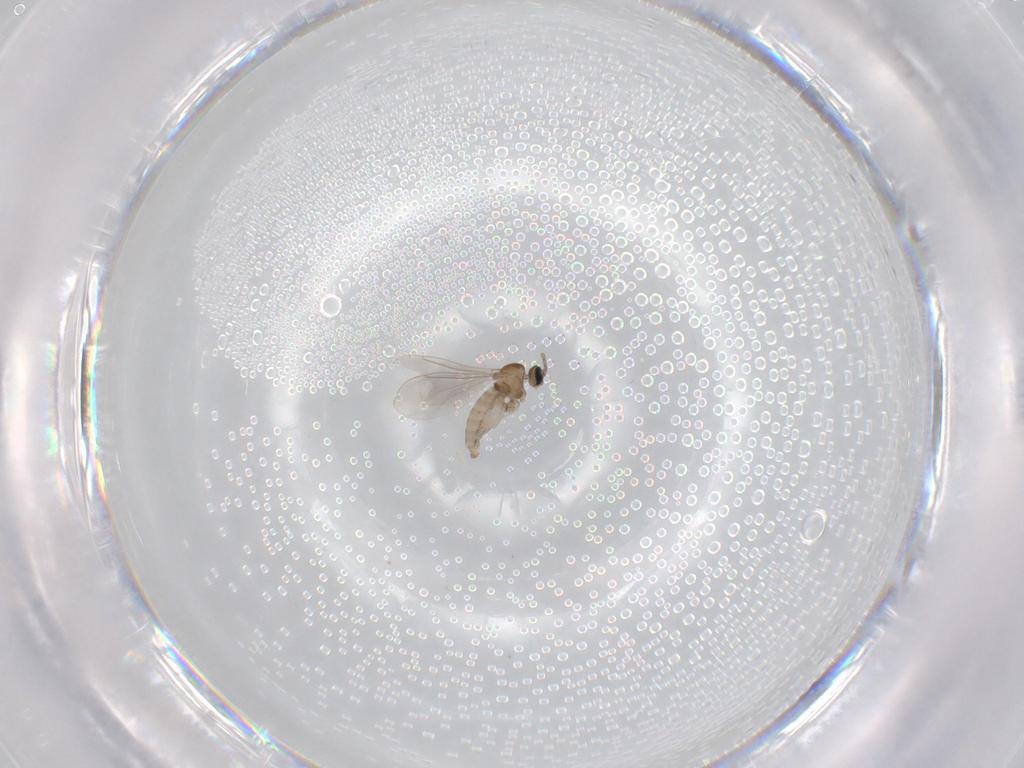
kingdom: Animalia
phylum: Arthropoda
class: Insecta
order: Diptera
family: Cecidomyiidae
